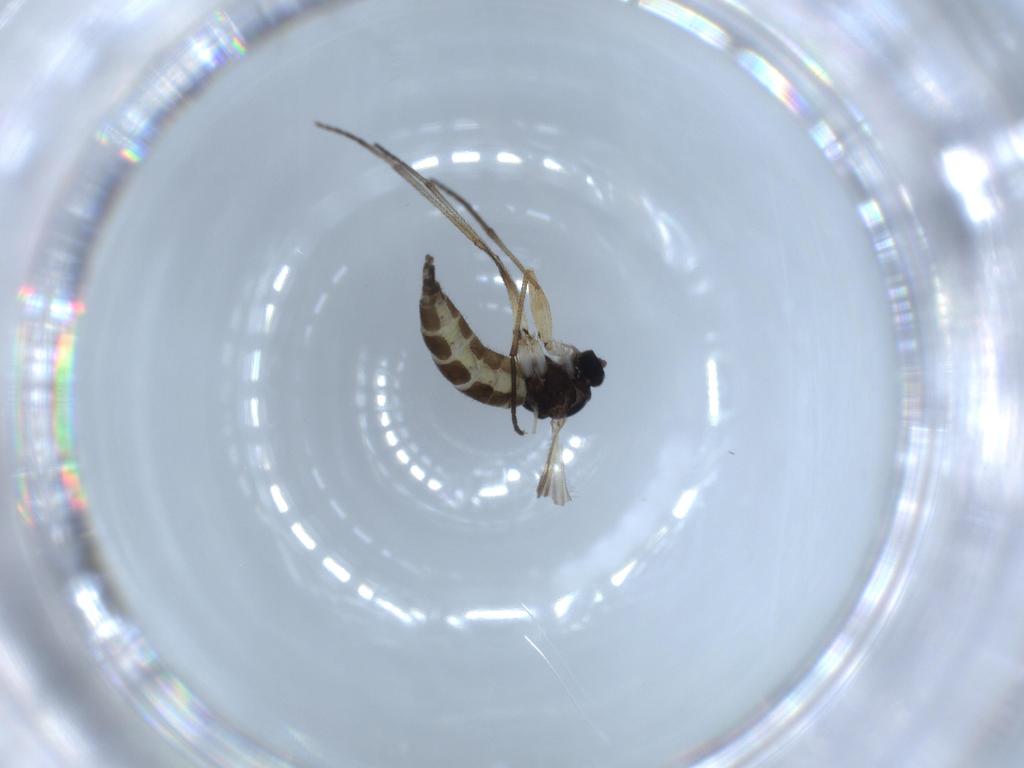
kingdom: Animalia
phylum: Arthropoda
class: Insecta
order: Diptera
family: Sciaridae
